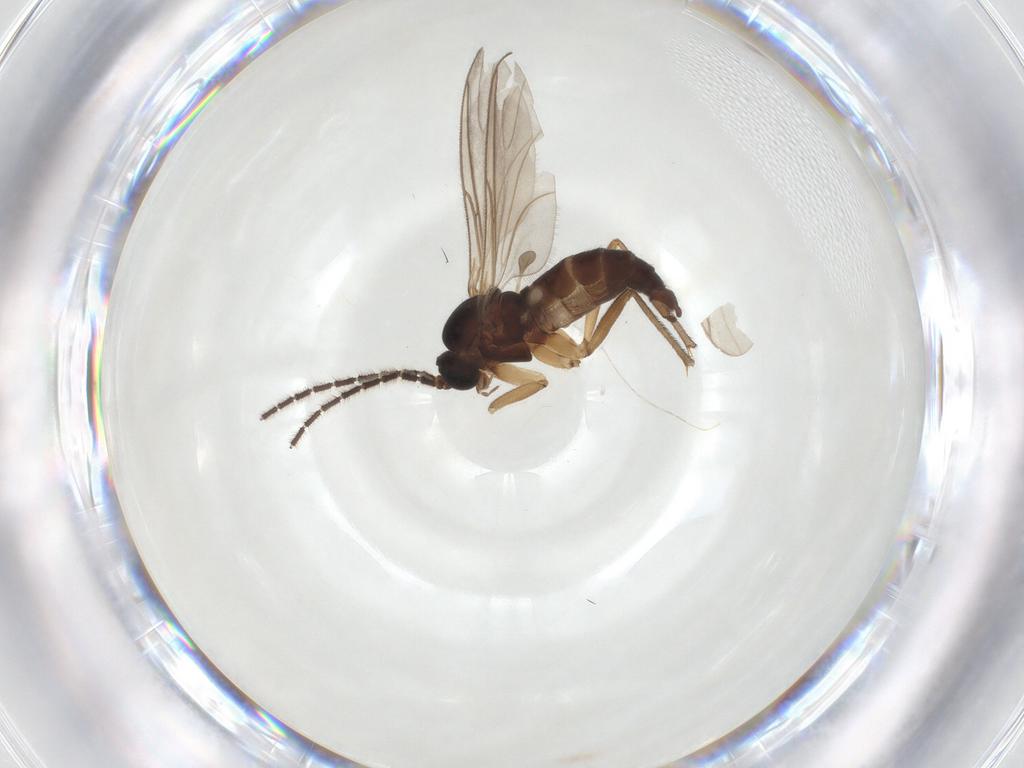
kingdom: Animalia
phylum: Arthropoda
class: Insecta
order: Diptera
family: Sciaridae
